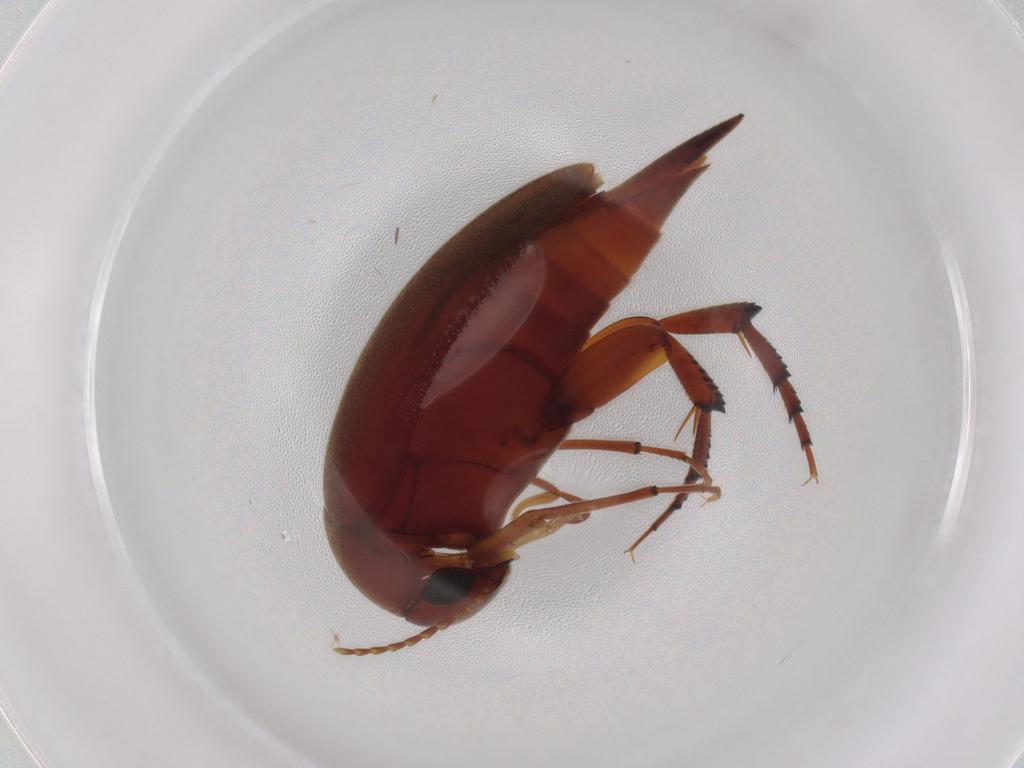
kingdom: Animalia
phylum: Arthropoda
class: Insecta
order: Coleoptera
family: Mordellidae
